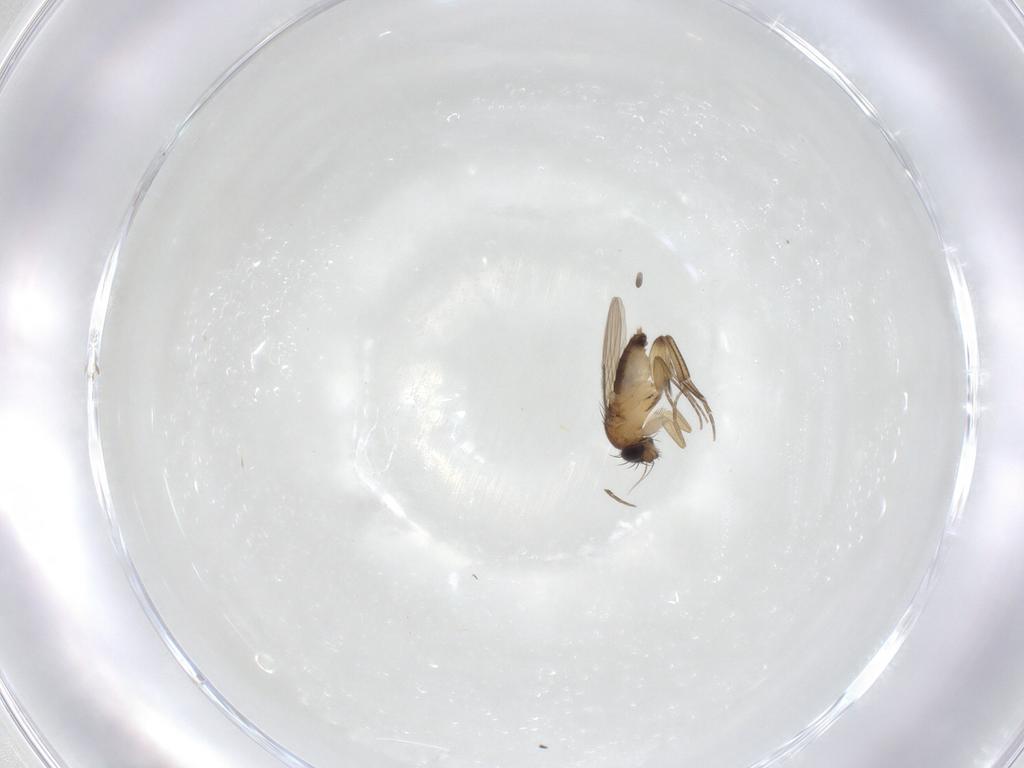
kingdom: Animalia
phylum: Arthropoda
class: Insecta
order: Diptera
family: Phoridae
